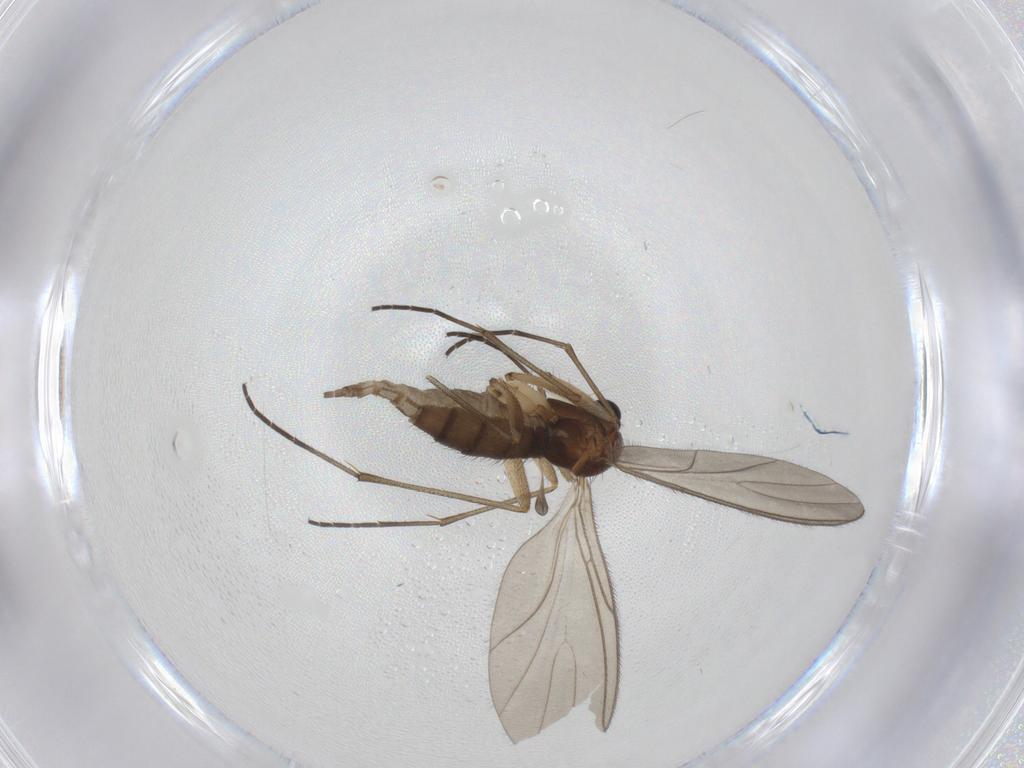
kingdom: Animalia
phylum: Arthropoda
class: Insecta
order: Diptera
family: Sciaridae
